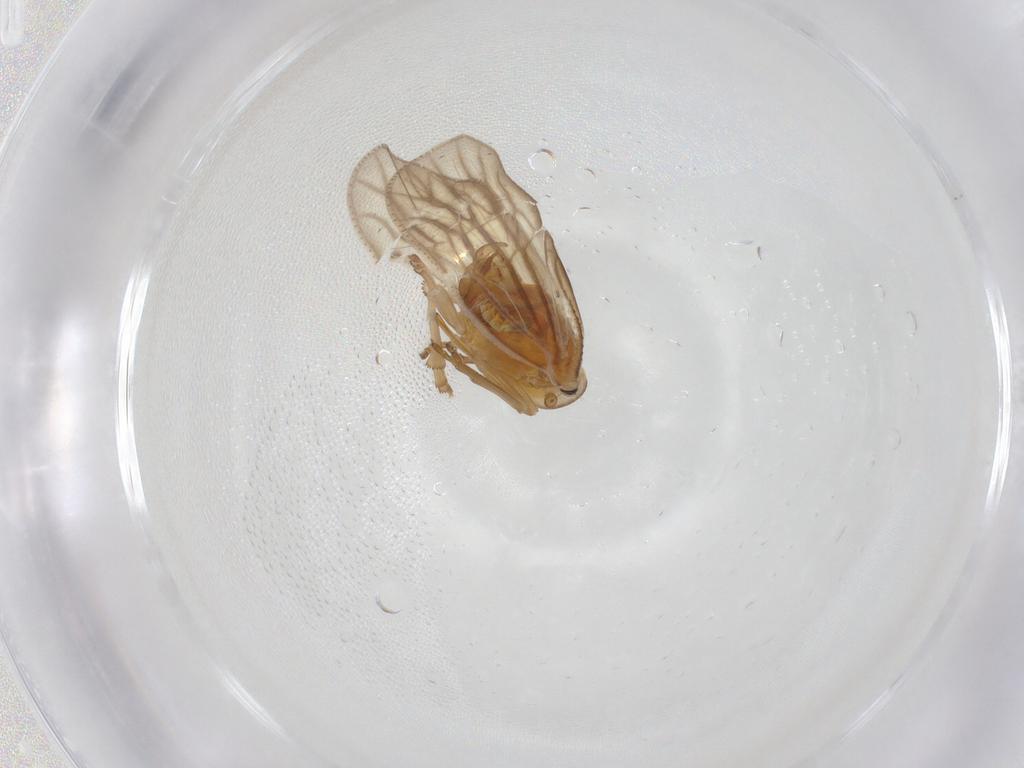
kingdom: Animalia
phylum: Arthropoda
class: Insecta
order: Hemiptera
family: Meenoplidae
